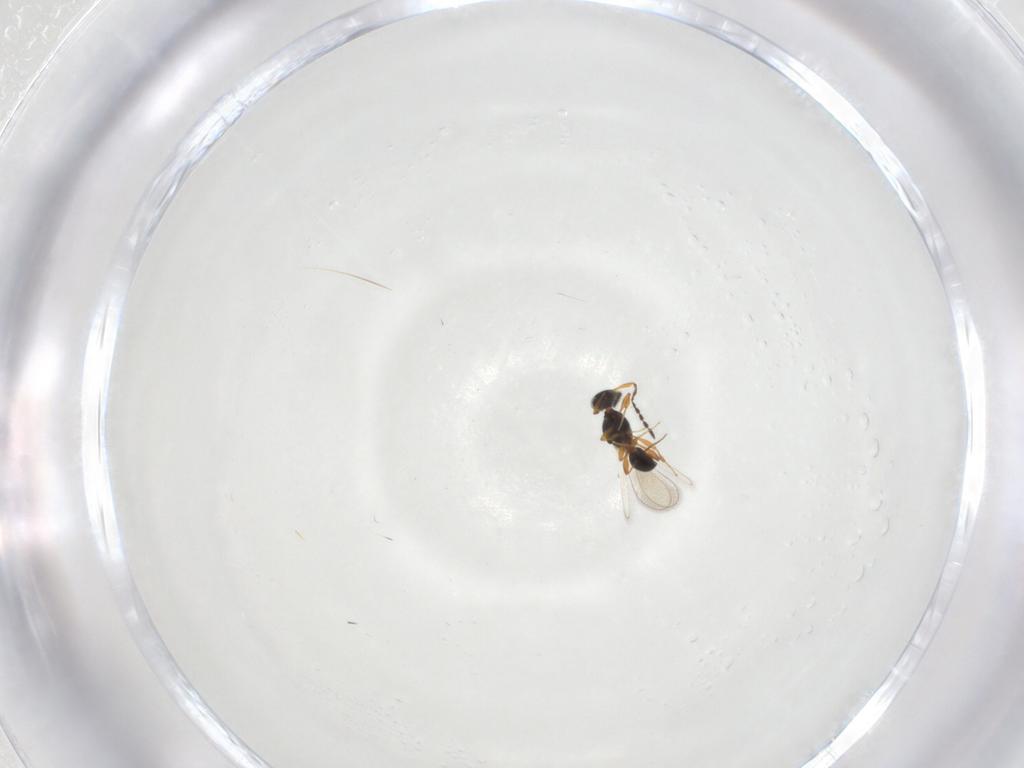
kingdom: Animalia
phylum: Arthropoda
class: Insecta
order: Hymenoptera
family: Platygastridae
